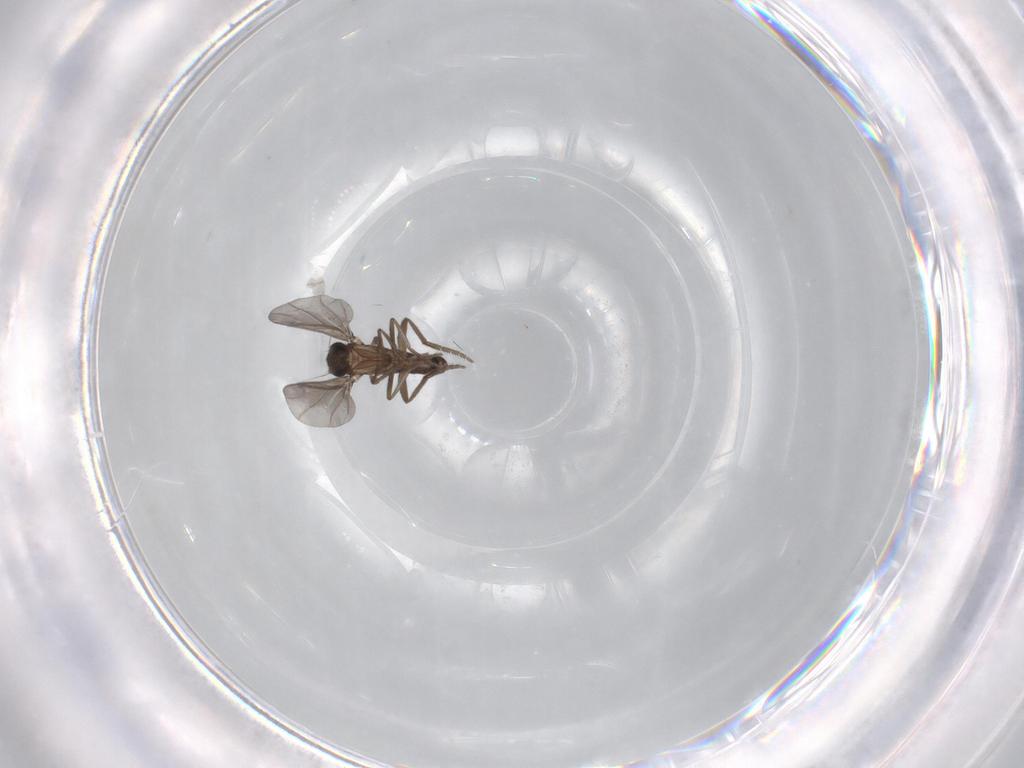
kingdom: Animalia
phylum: Arthropoda
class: Insecta
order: Diptera
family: Phoridae
